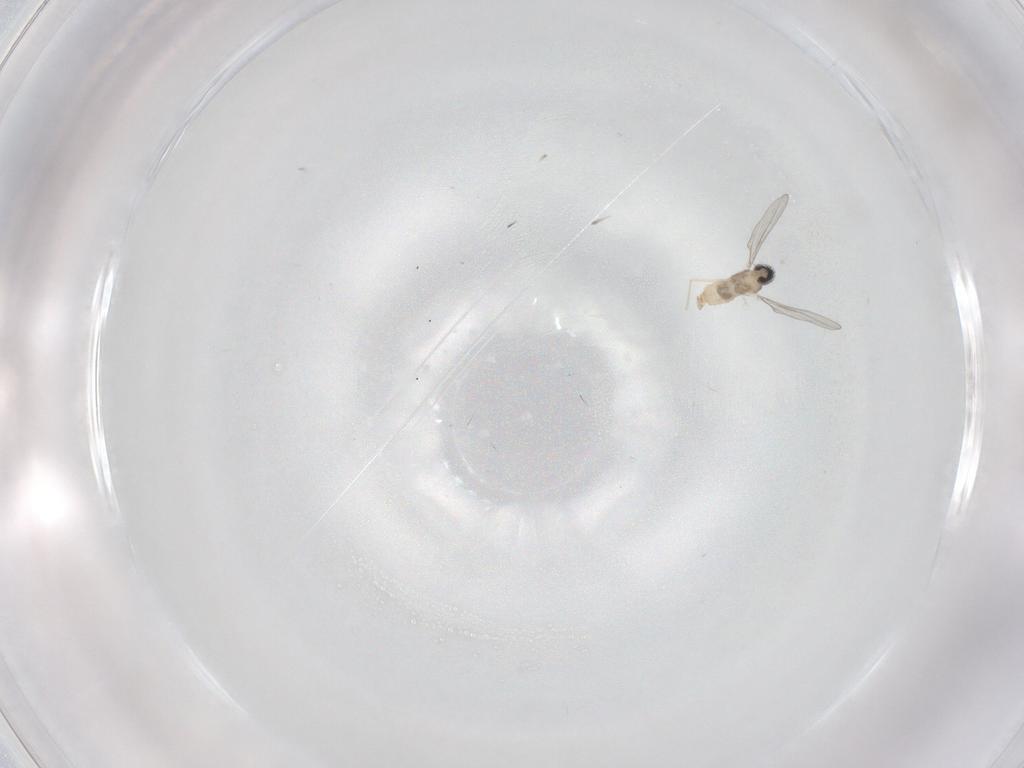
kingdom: Animalia
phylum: Arthropoda
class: Insecta
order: Diptera
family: Cecidomyiidae
